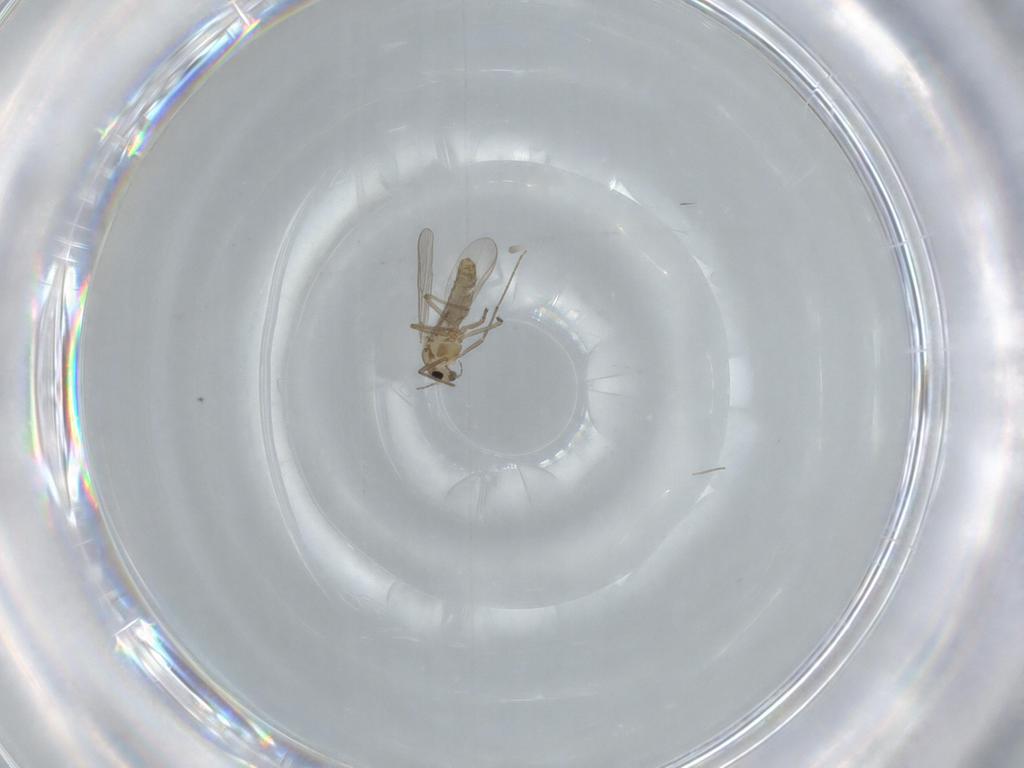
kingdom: Animalia
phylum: Arthropoda
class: Insecta
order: Diptera
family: Chironomidae
